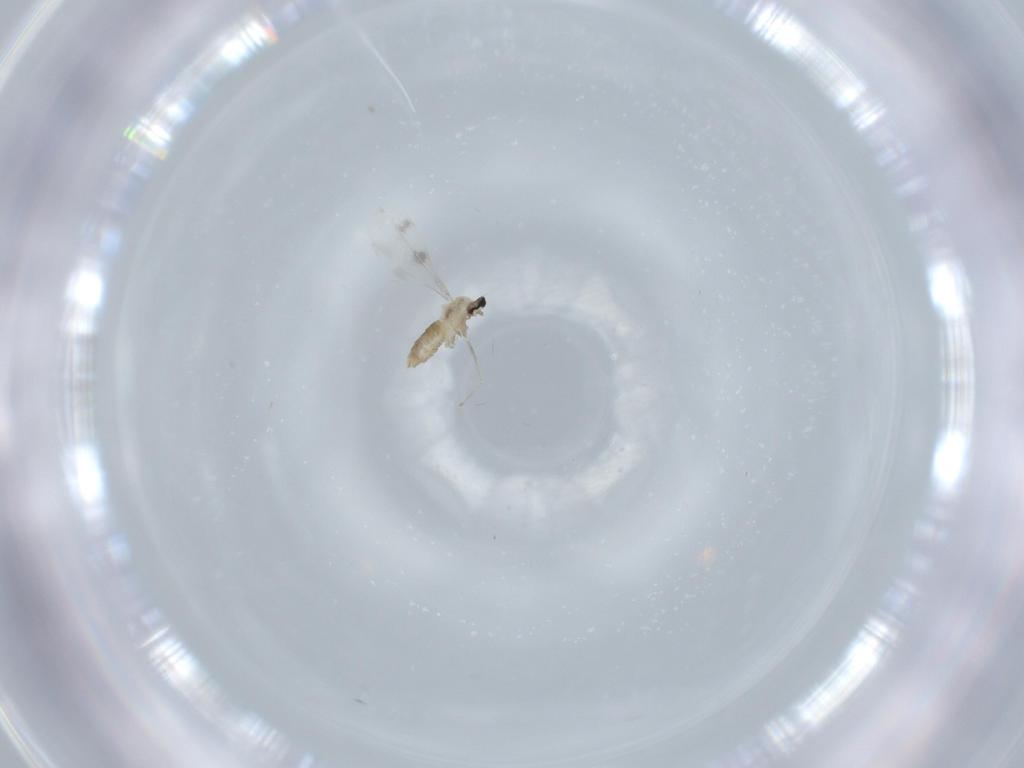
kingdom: Animalia
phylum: Arthropoda
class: Insecta
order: Diptera
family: Cecidomyiidae
